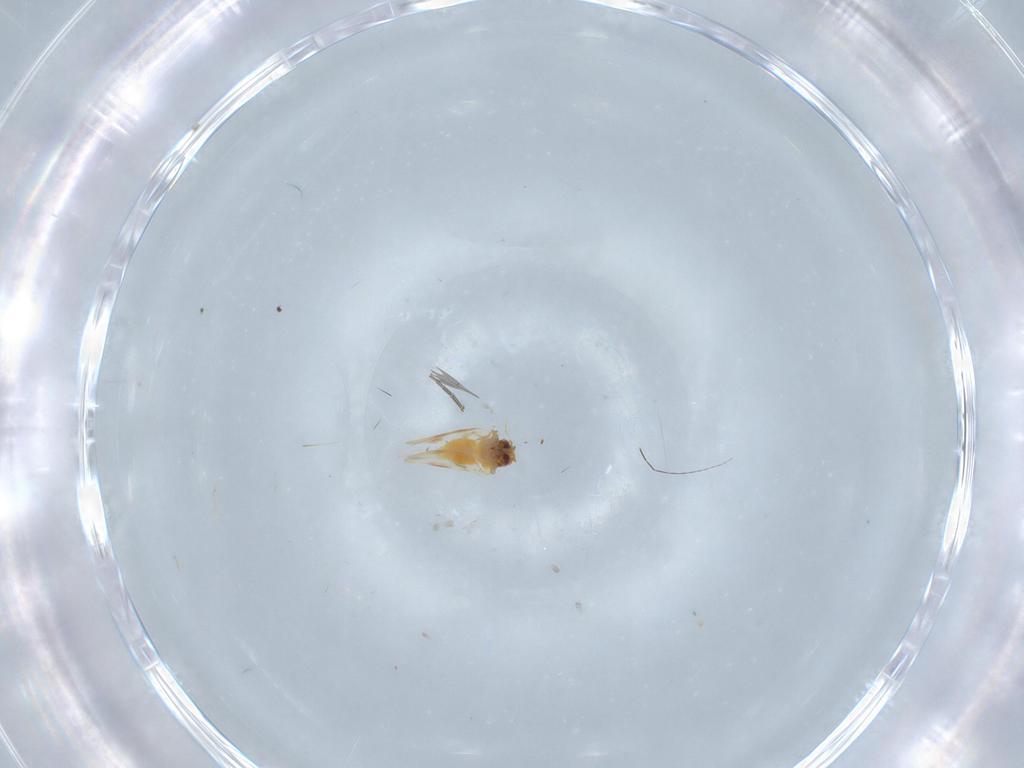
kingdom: Animalia
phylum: Arthropoda
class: Insecta
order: Hemiptera
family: Aleyrodidae
